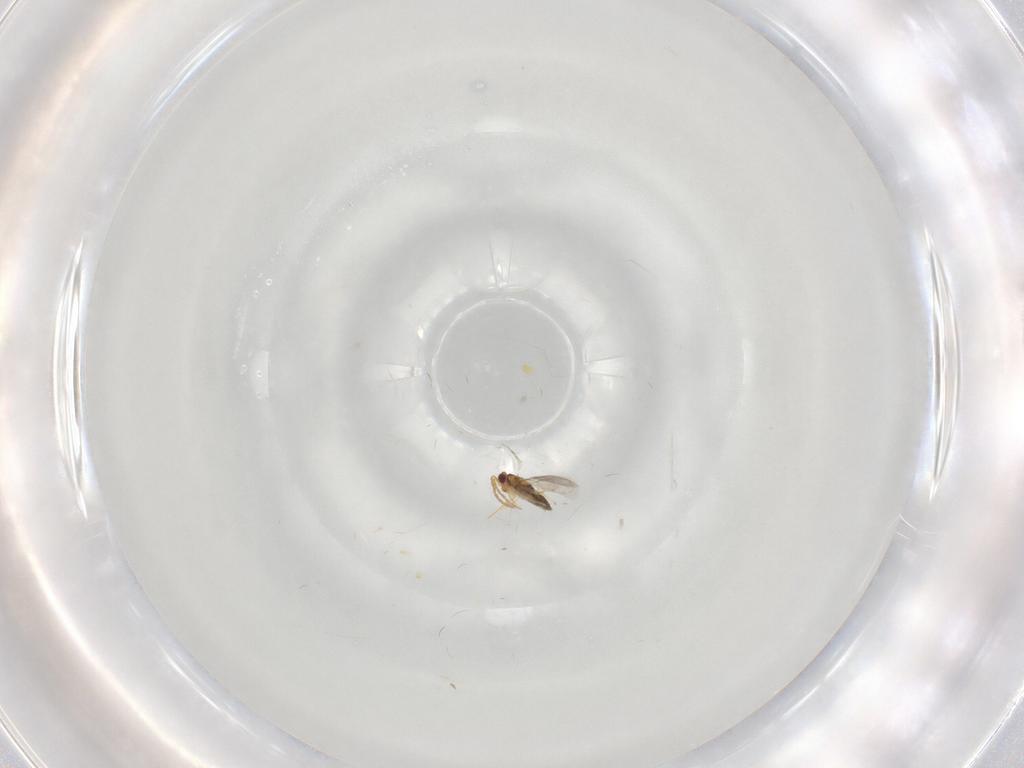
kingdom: Animalia
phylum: Arthropoda
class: Insecta
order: Hymenoptera
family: Aphelinidae
